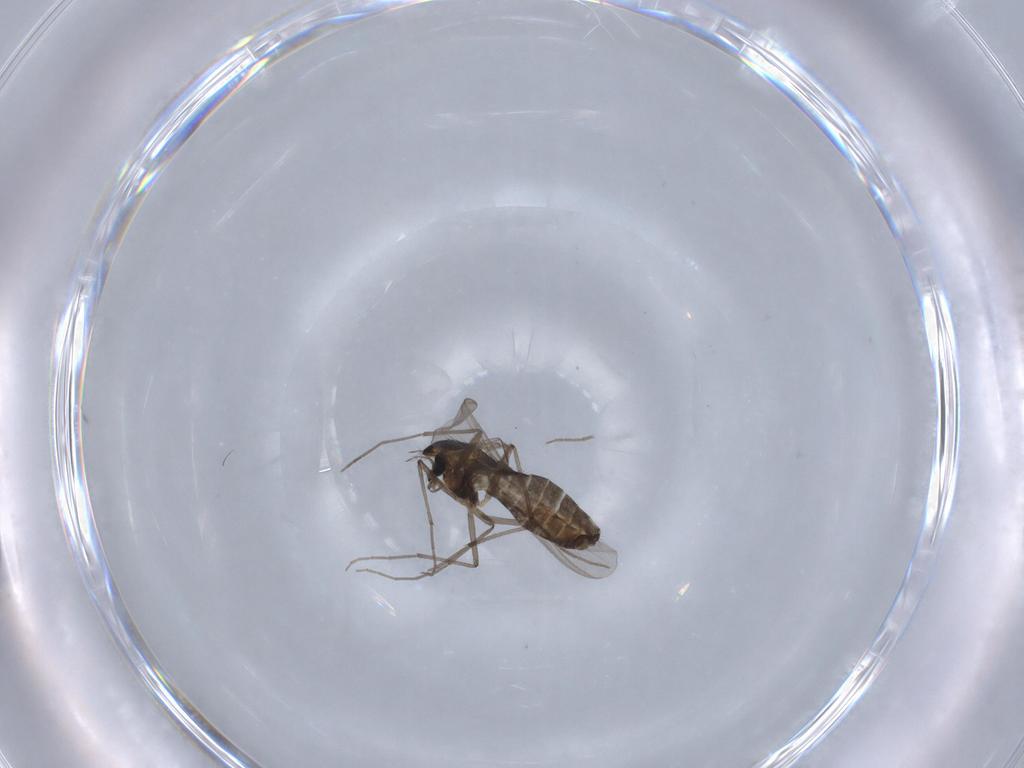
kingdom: Animalia
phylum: Arthropoda
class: Insecta
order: Diptera
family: Chironomidae
